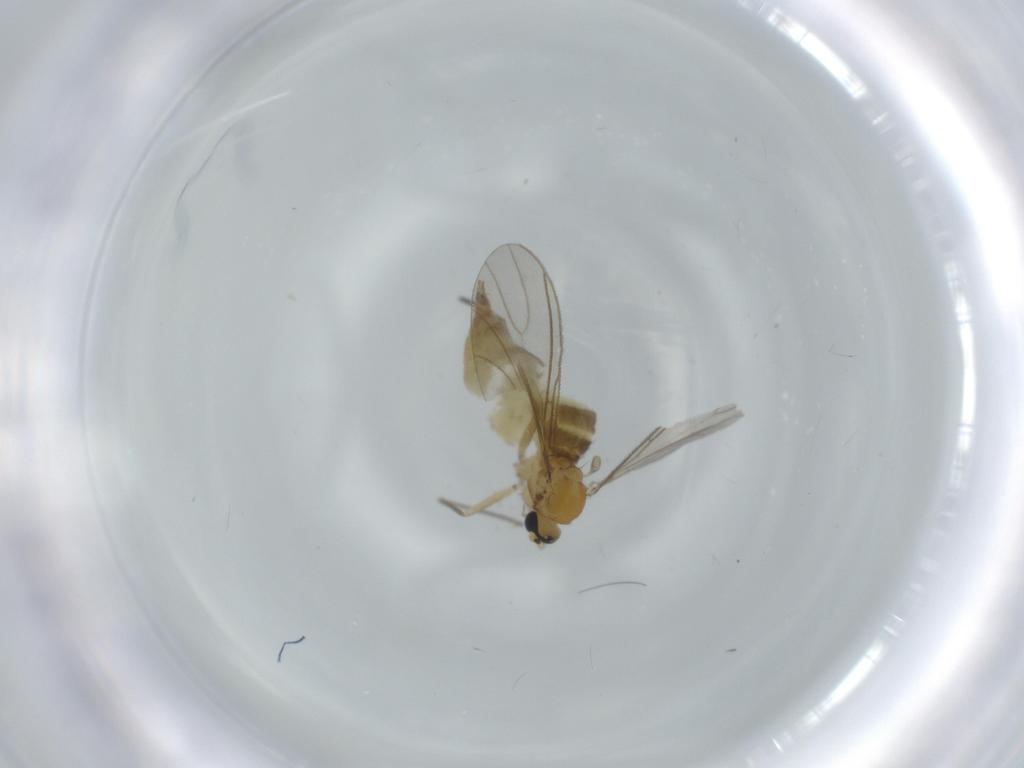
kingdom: Animalia
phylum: Arthropoda
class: Insecta
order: Diptera
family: Sciaridae
